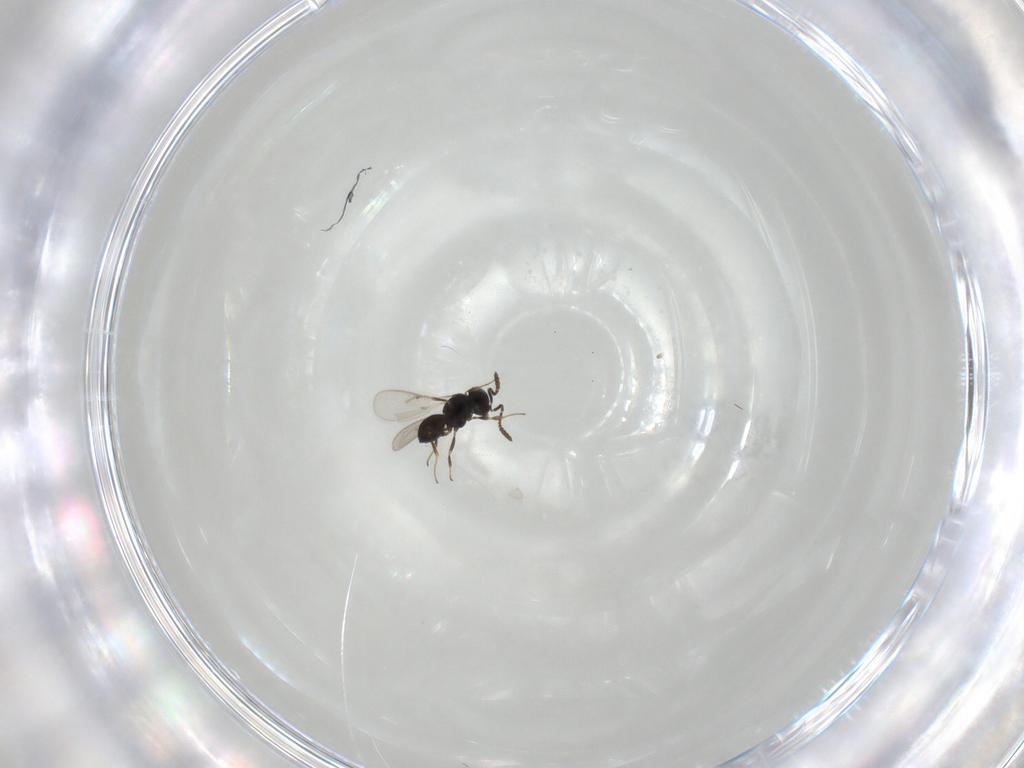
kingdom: Animalia
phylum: Arthropoda
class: Insecta
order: Hymenoptera
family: Scelionidae
